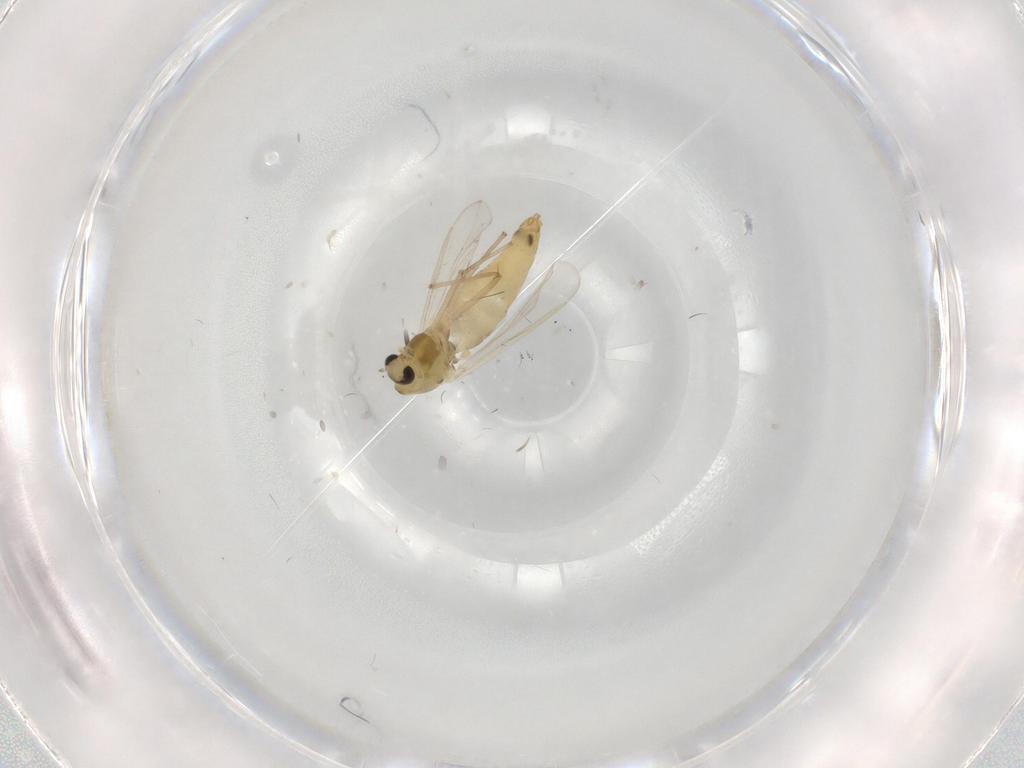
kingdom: Animalia
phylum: Arthropoda
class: Insecta
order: Diptera
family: Chironomidae
